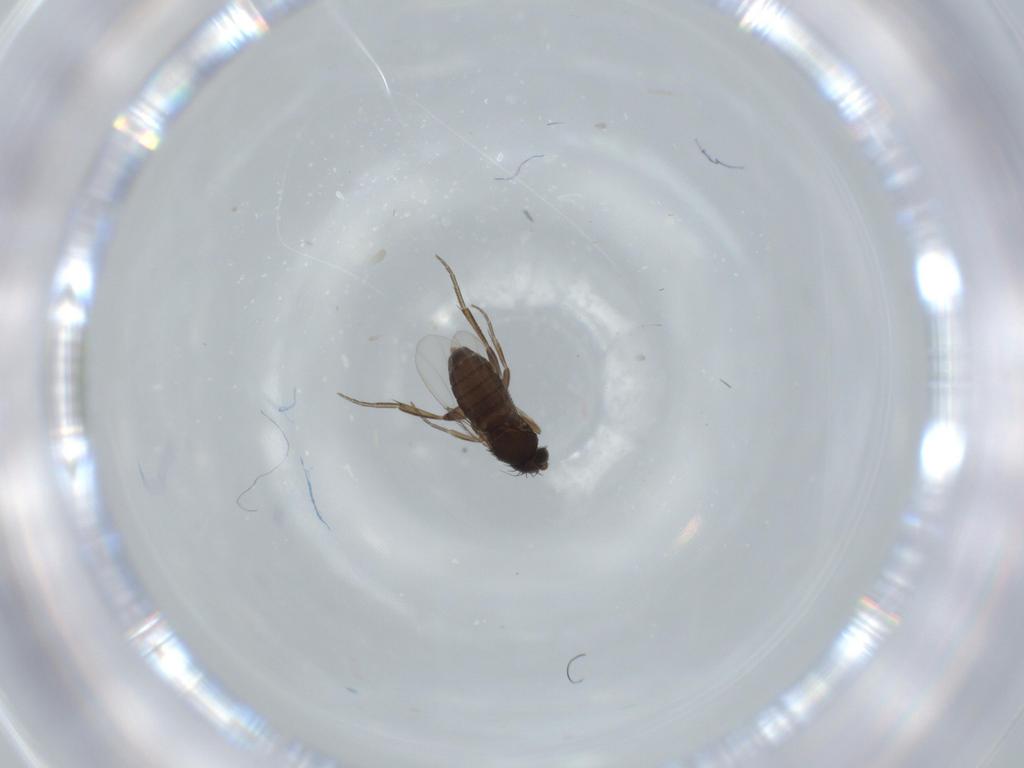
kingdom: Animalia
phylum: Arthropoda
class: Insecta
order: Diptera
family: Phoridae
